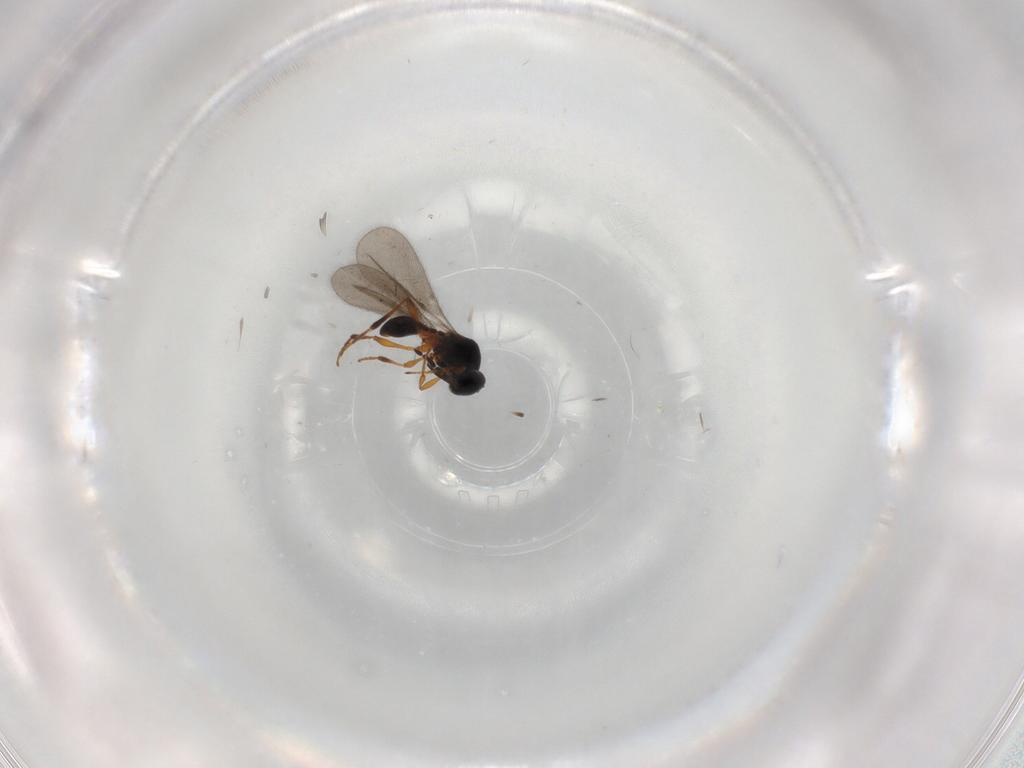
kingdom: Animalia
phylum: Arthropoda
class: Insecta
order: Hymenoptera
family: Platygastridae
